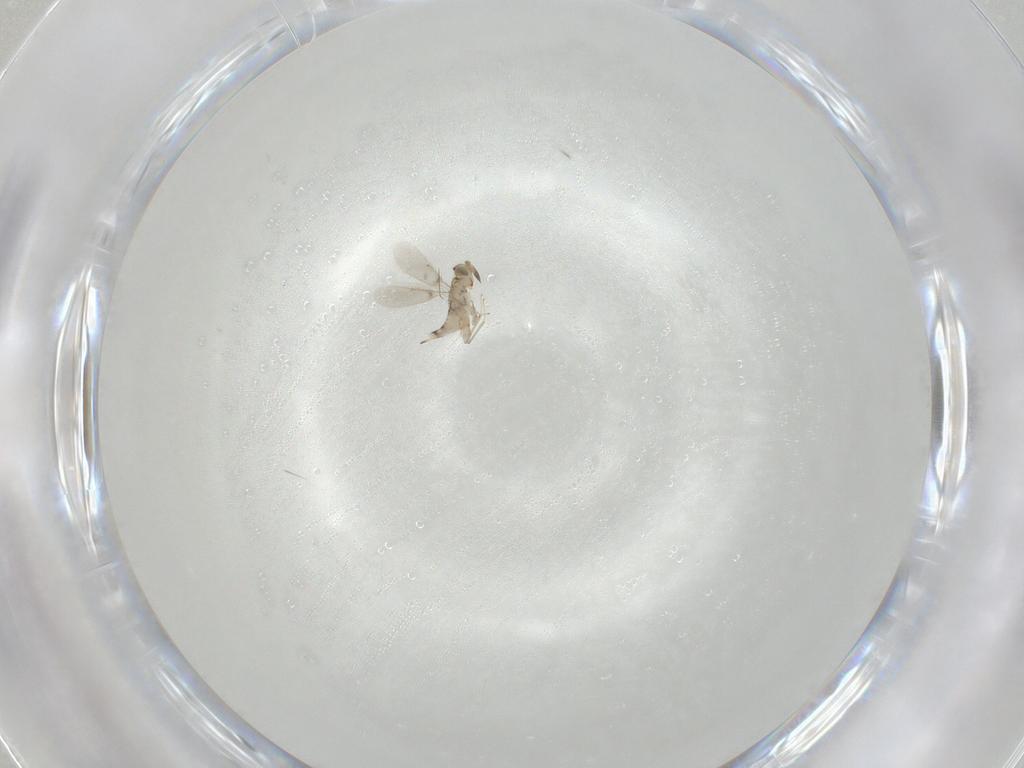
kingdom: Animalia
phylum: Arthropoda
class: Insecta
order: Hymenoptera
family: Aphelinidae
